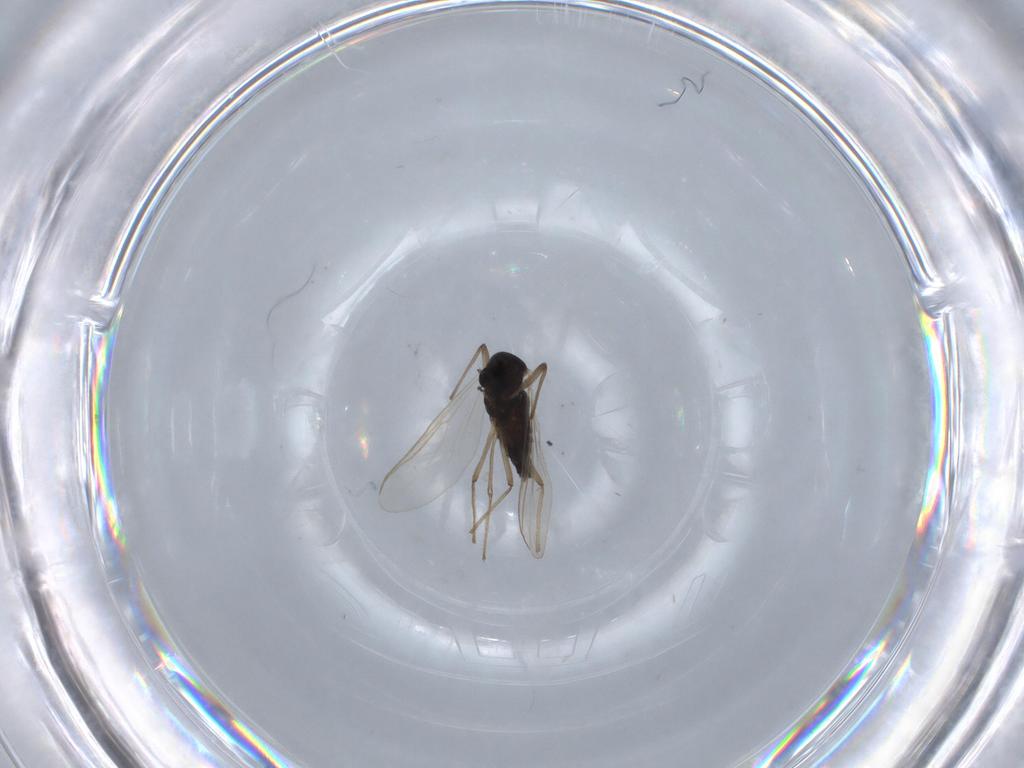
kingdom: Animalia
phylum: Arthropoda
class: Insecta
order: Diptera
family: Chironomidae
